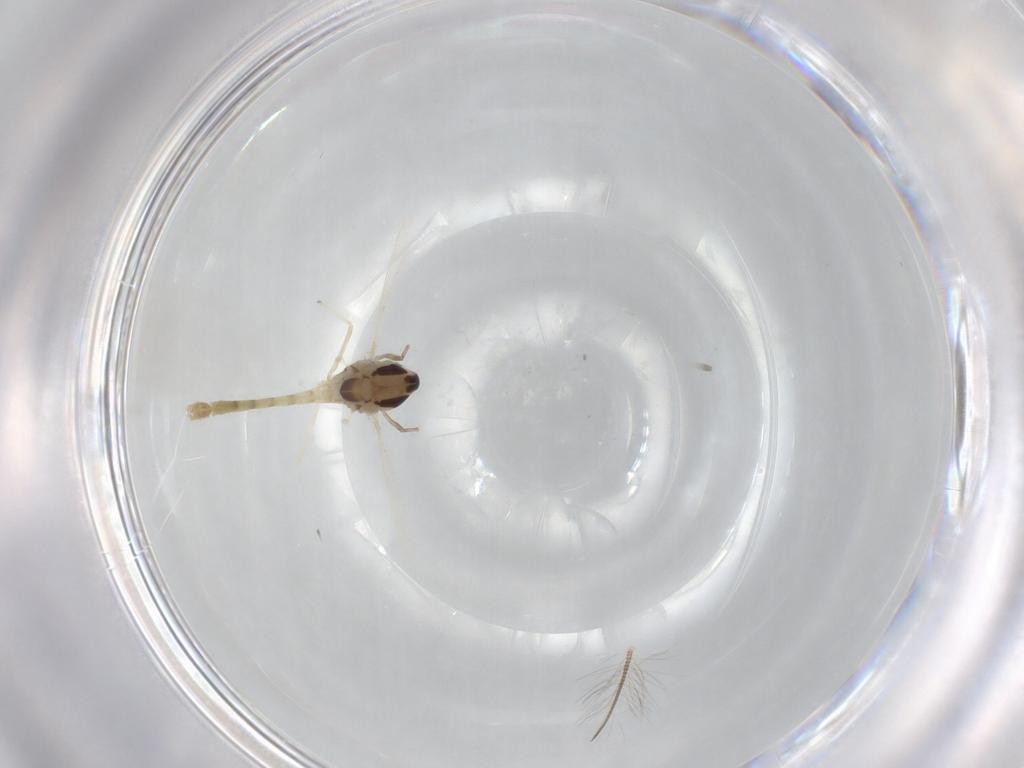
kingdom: Animalia
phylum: Arthropoda
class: Insecta
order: Diptera
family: Chironomidae
